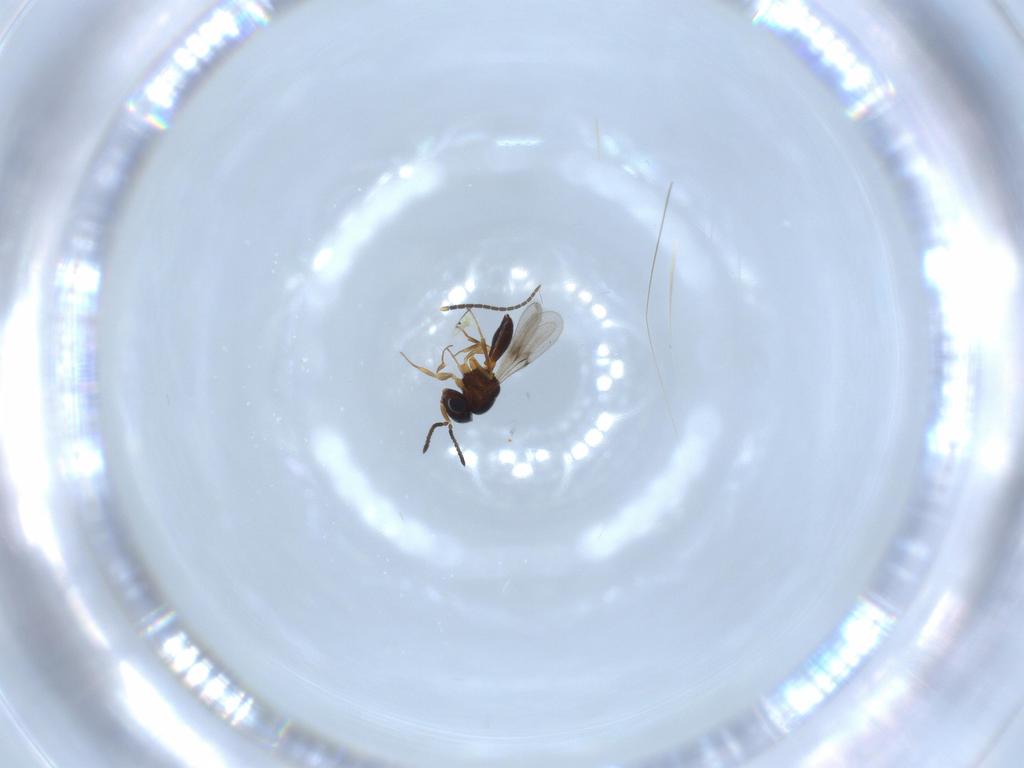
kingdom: Animalia
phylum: Arthropoda
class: Arachnida
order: Araneae
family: Pholcidae
